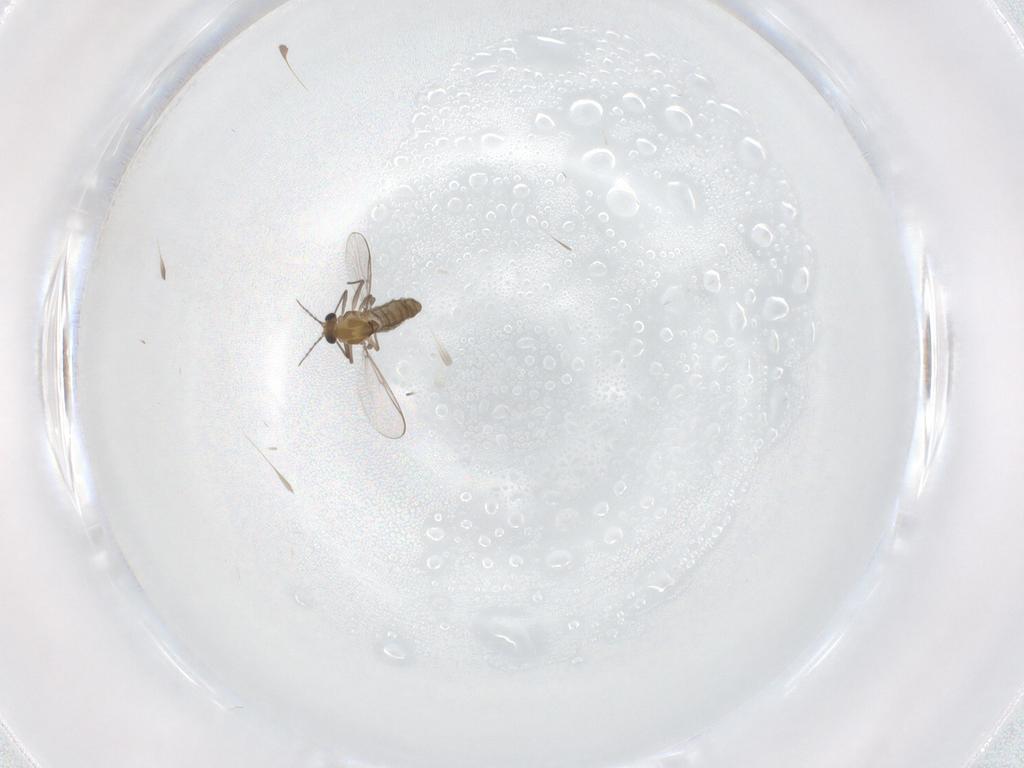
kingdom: Animalia
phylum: Arthropoda
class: Insecta
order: Diptera
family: Chironomidae
